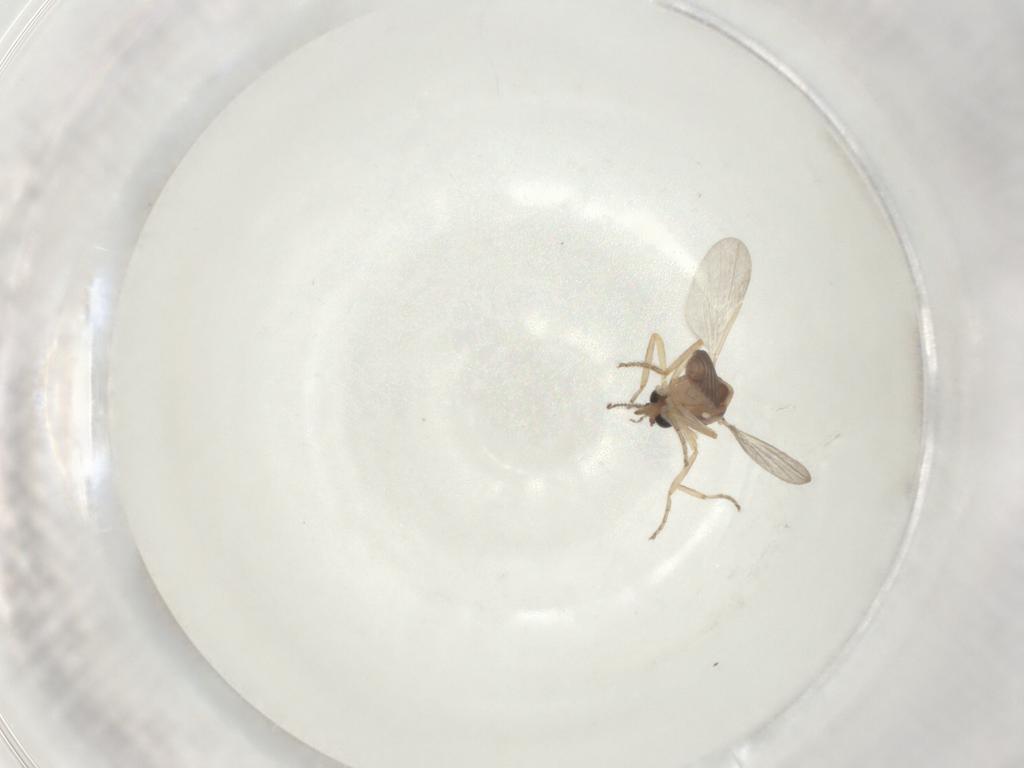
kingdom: Animalia
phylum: Arthropoda
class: Insecta
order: Diptera
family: Ceratopogonidae
